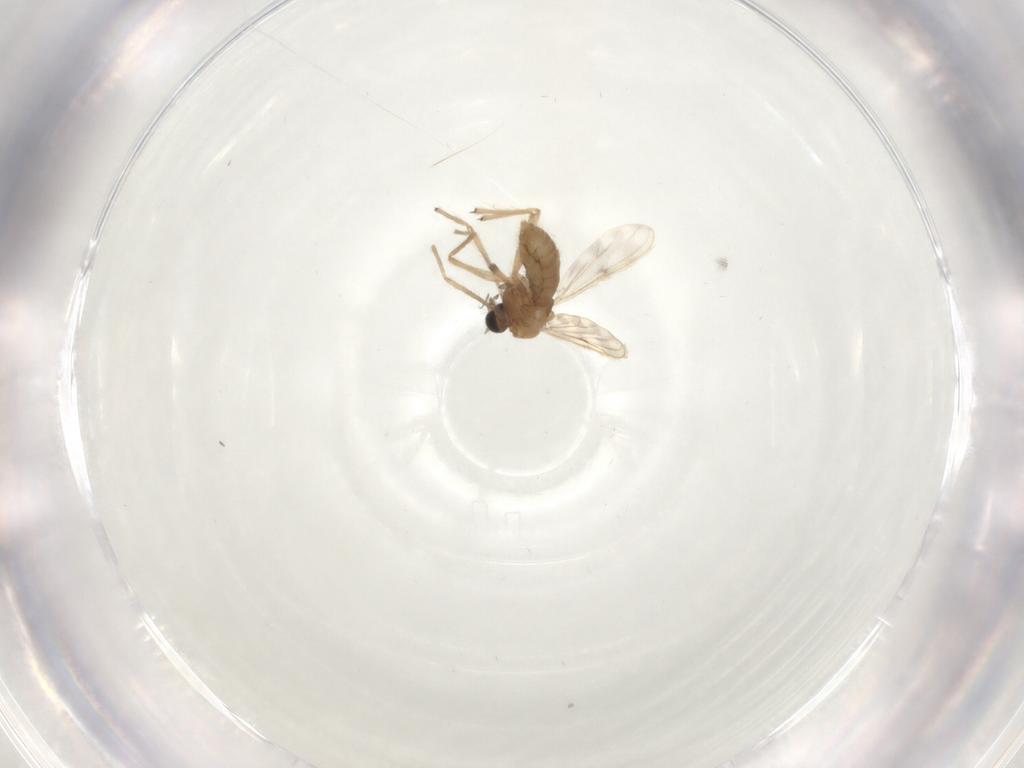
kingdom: Animalia
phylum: Arthropoda
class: Insecta
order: Diptera
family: Chironomidae
